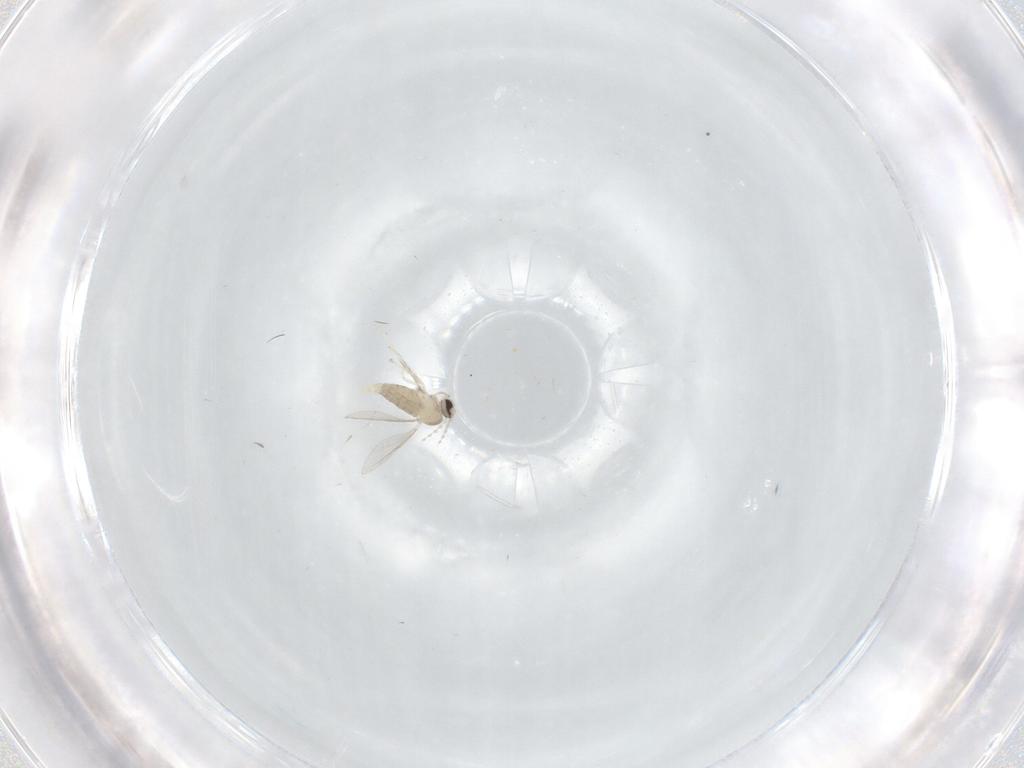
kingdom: Animalia
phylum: Arthropoda
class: Insecta
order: Diptera
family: Cecidomyiidae
